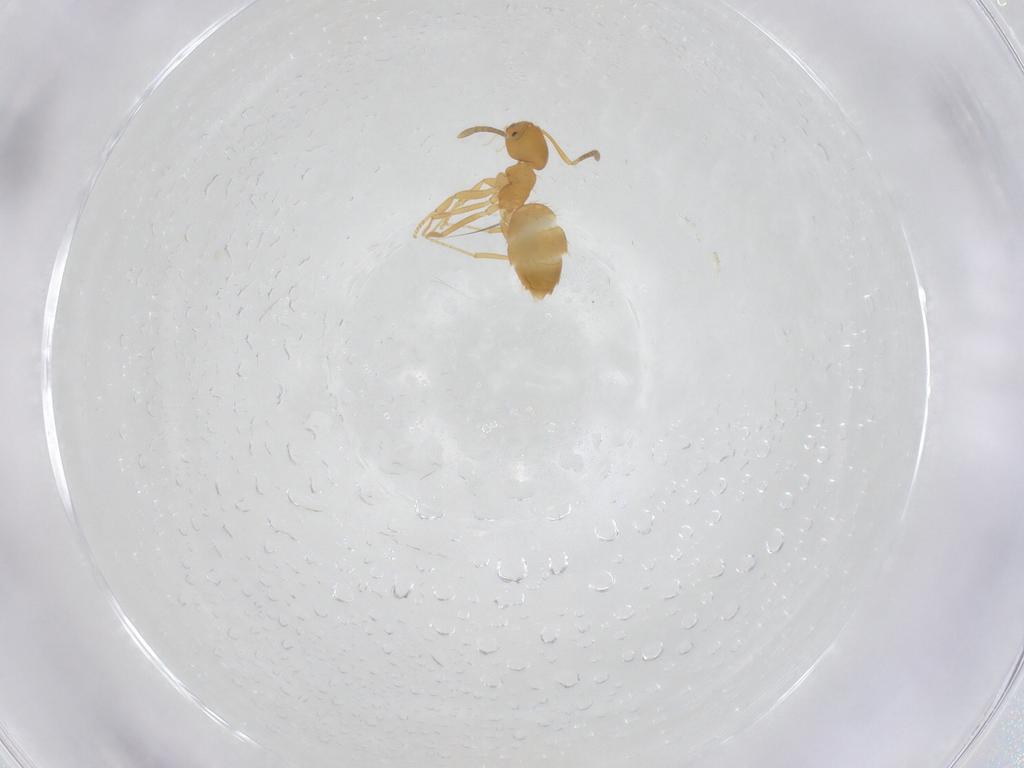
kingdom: Animalia
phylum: Arthropoda
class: Insecta
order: Hymenoptera
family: Formicidae
